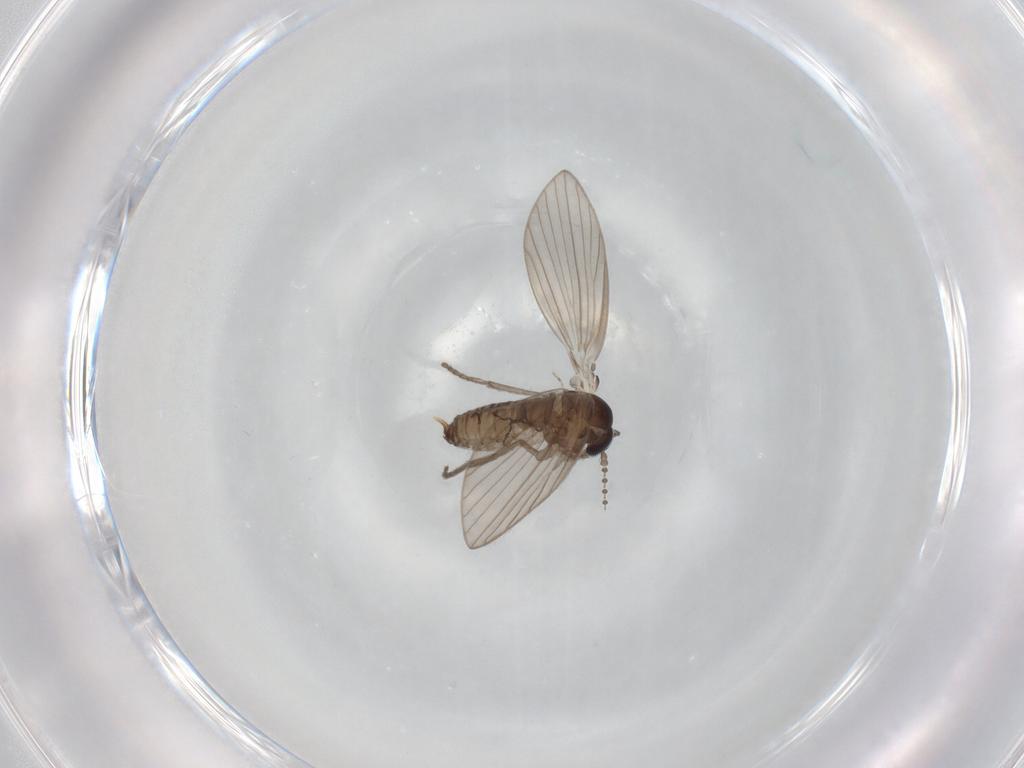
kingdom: Animalia
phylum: Arthropoda
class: Insecta
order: Diptera
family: Psychodidae
